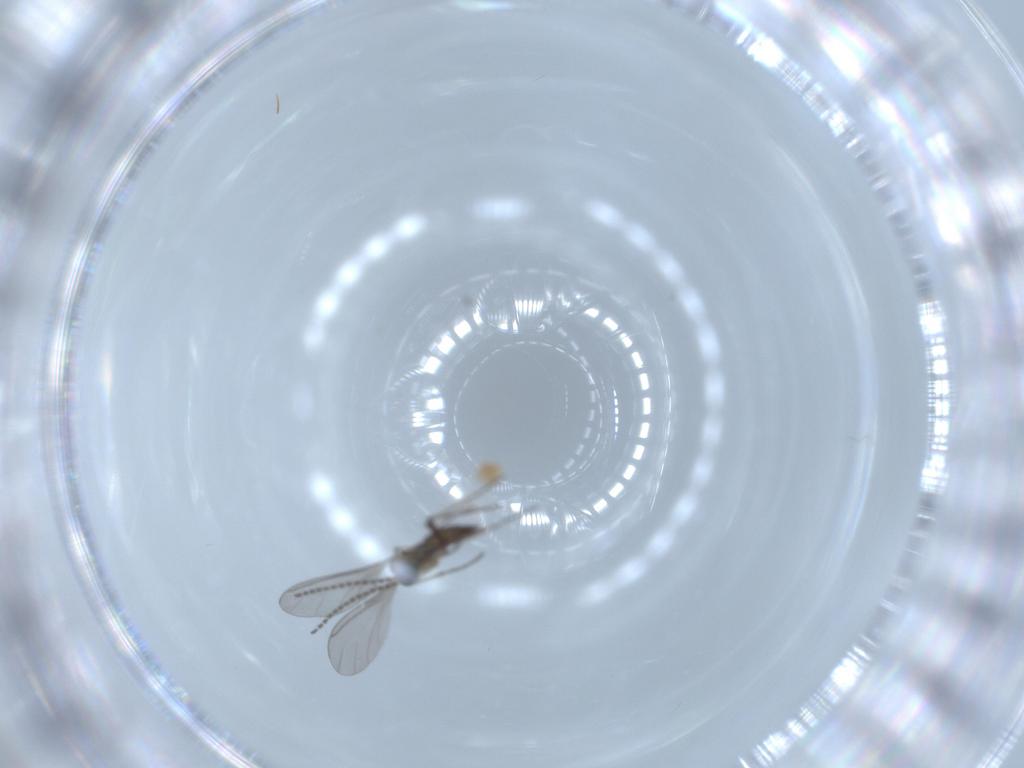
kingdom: Animalia
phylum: Arthropoda
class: Insecta
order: Diptera
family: Sciaridae
